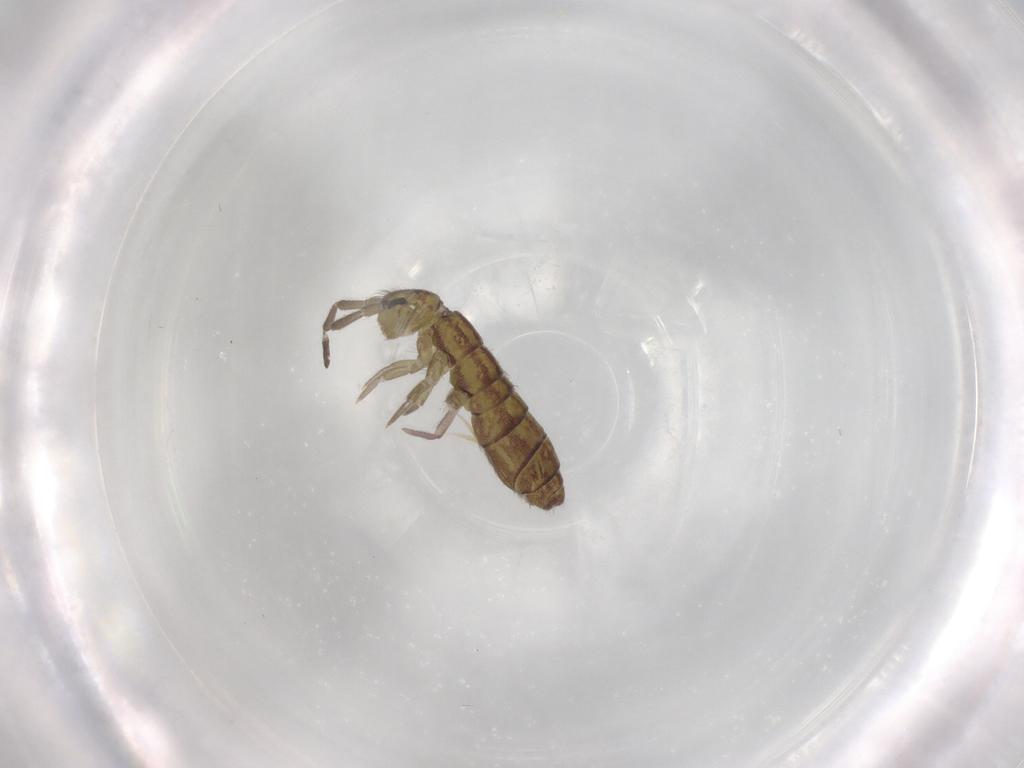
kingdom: Animalia
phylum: Arthropoda
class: Collembola
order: Entomobryomorpha
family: Isotomidae
